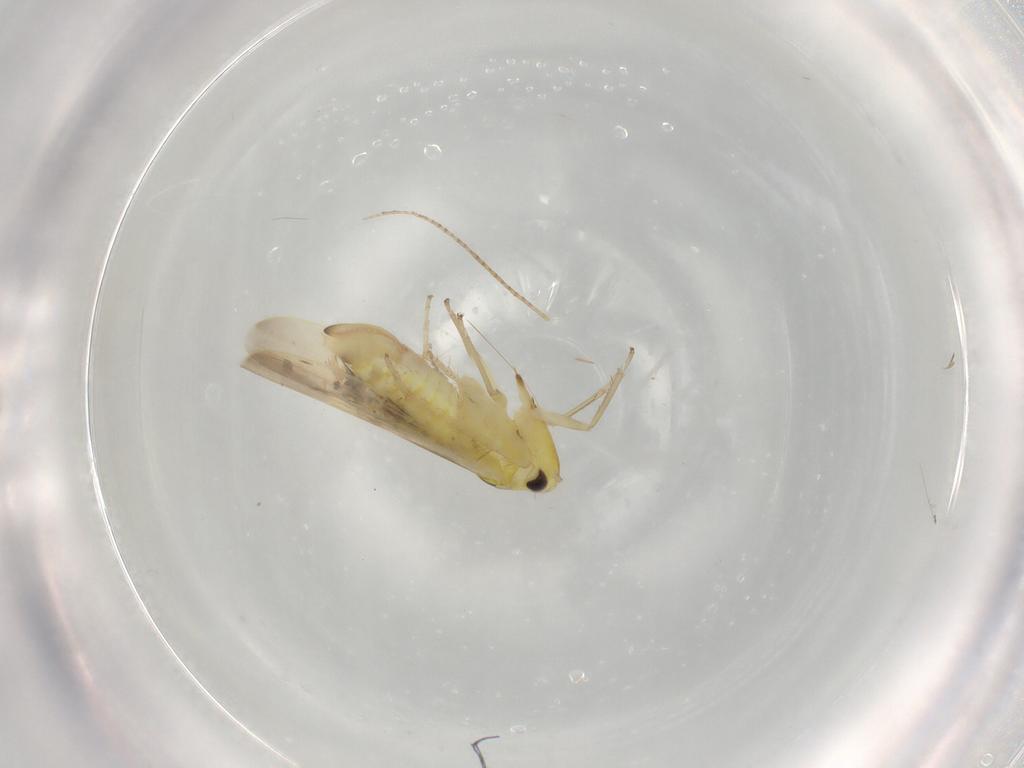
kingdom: Animalia
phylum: Arthropoda
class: Insecta
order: Hemiptera
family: Cicadellidae
